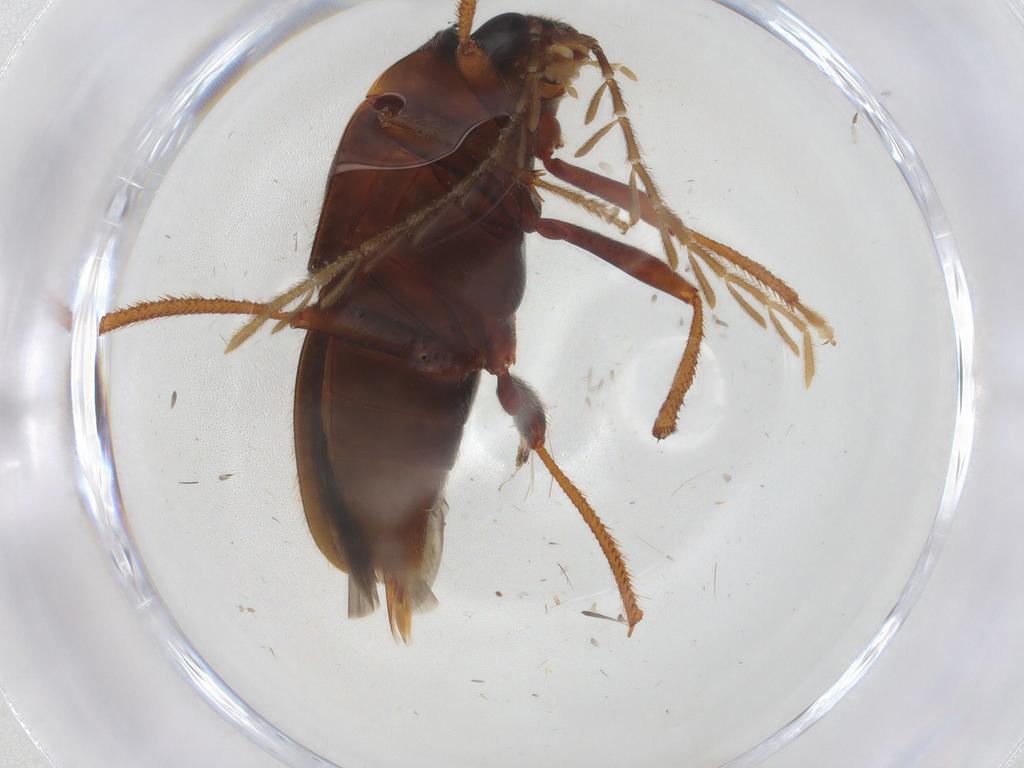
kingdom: Animalia
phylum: Arthropoda
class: Insecta
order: Coleoptera
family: Ptilodactylidae
